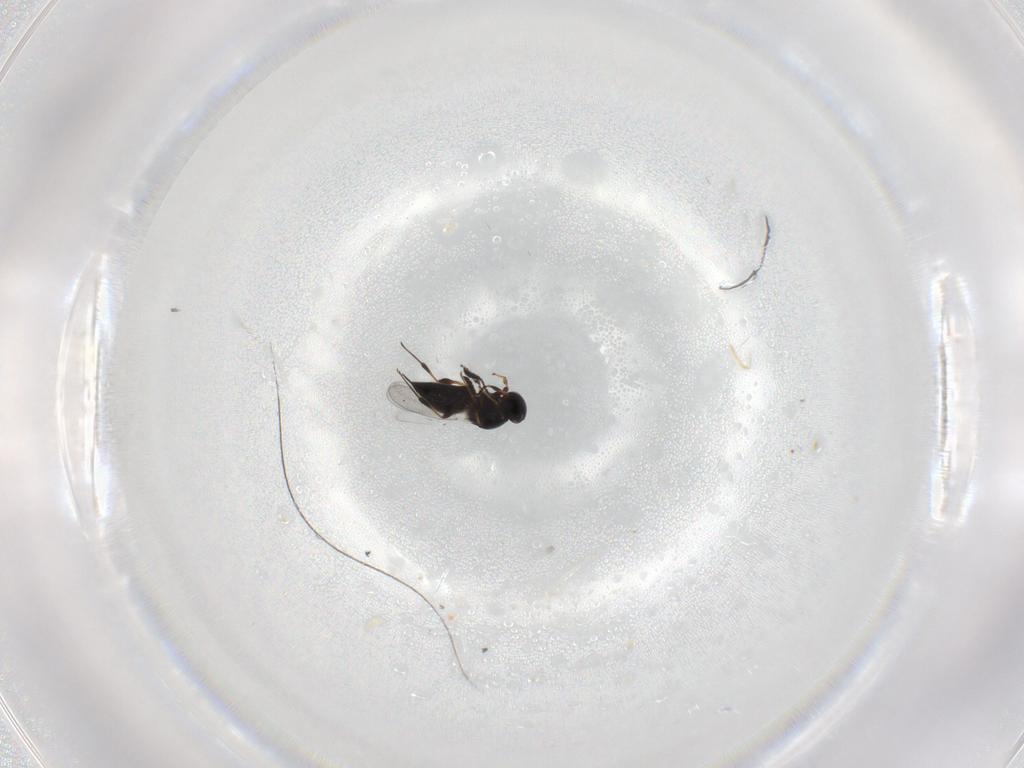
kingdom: Animalia
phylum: Arthropoda
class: Insecta
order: Hymenoptera
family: Platygastridae
